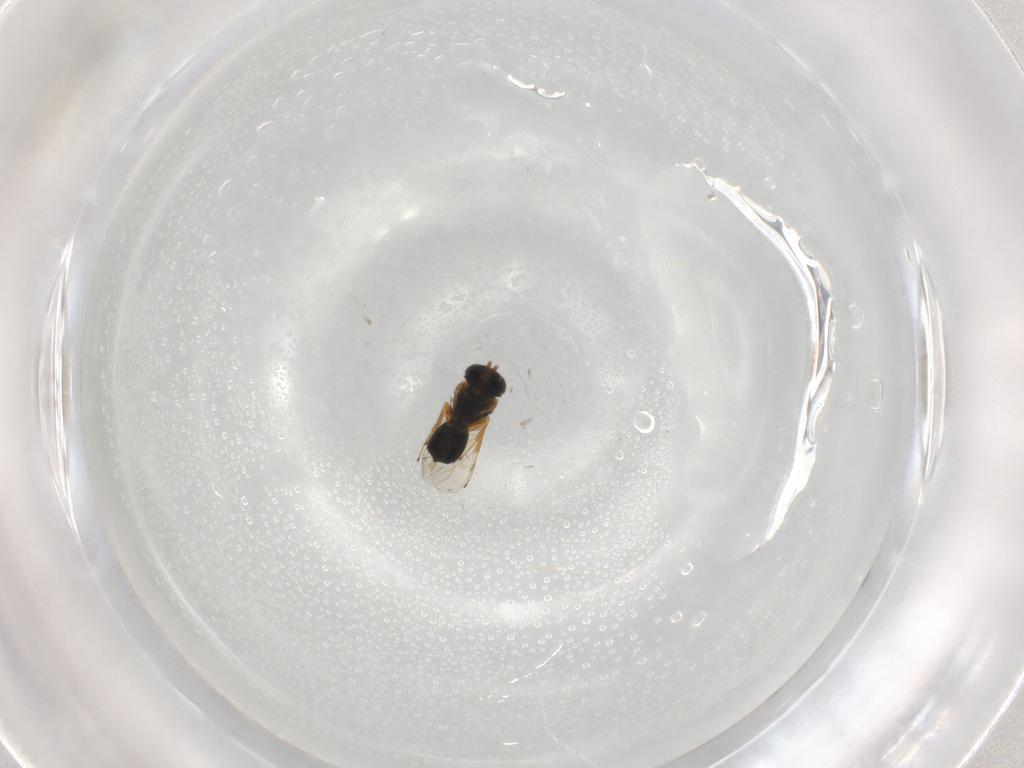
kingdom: Animalia
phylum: Arthropoda
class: Insecta
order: Hymenoptera
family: Scelionidae
